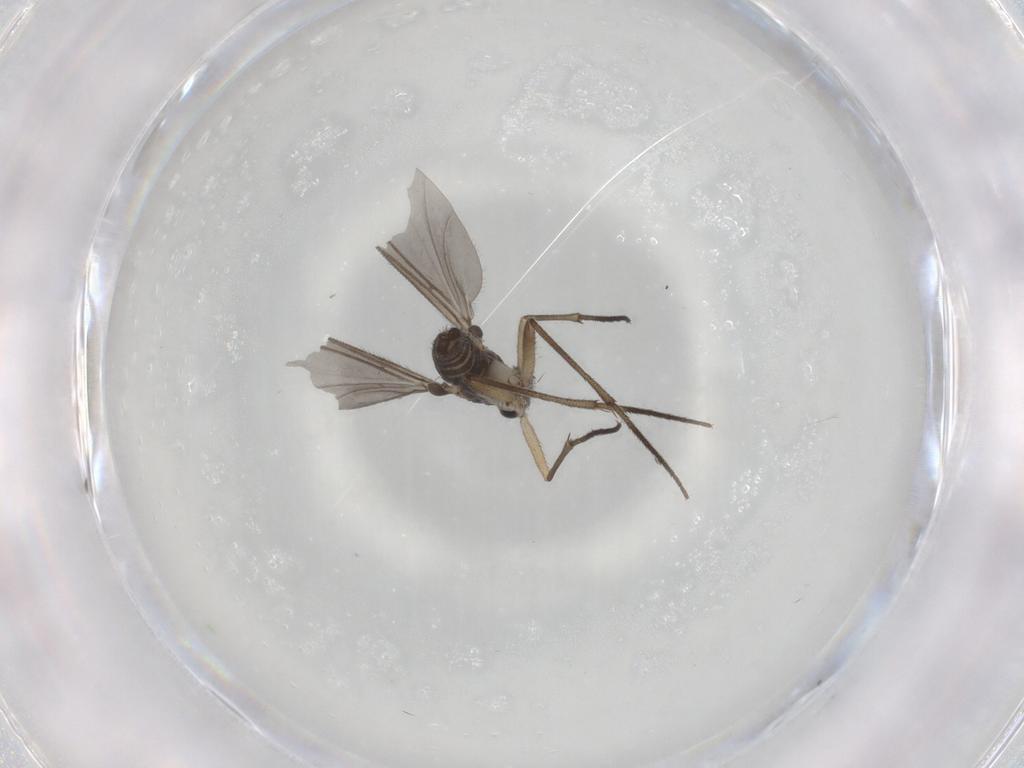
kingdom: Animalia
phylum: Arthropoda
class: Insecta
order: Diptera
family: Sciaridae
